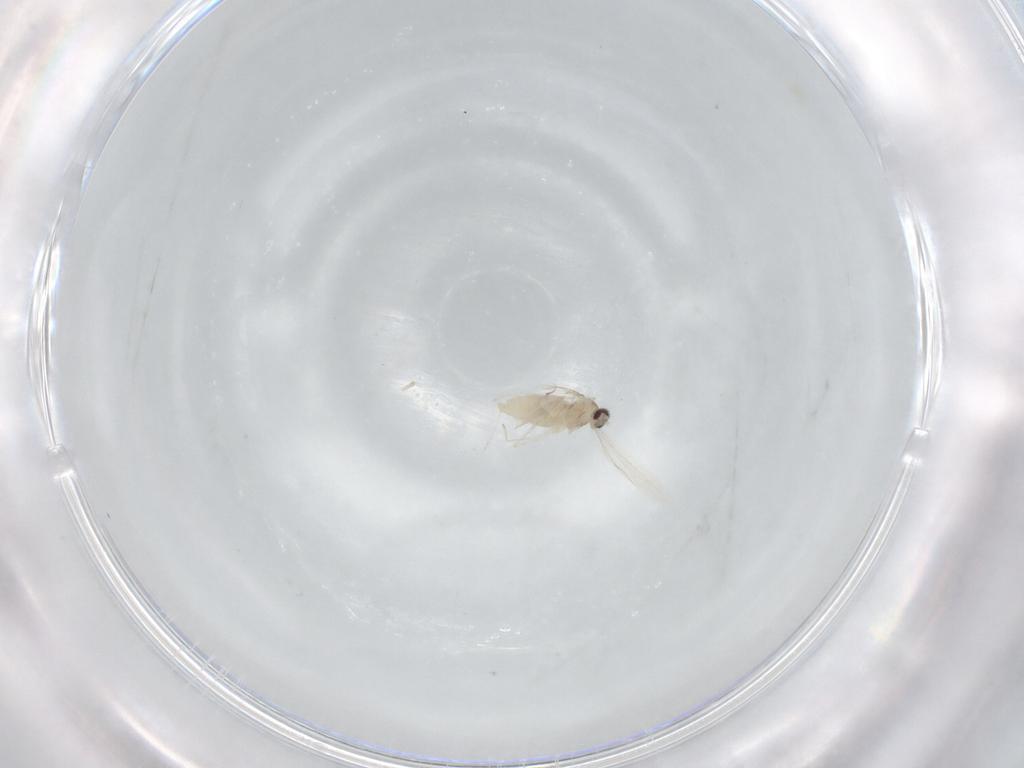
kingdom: Animalia
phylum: Arthropoda
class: Insecta
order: Diptera
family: Cecidomyiidae
